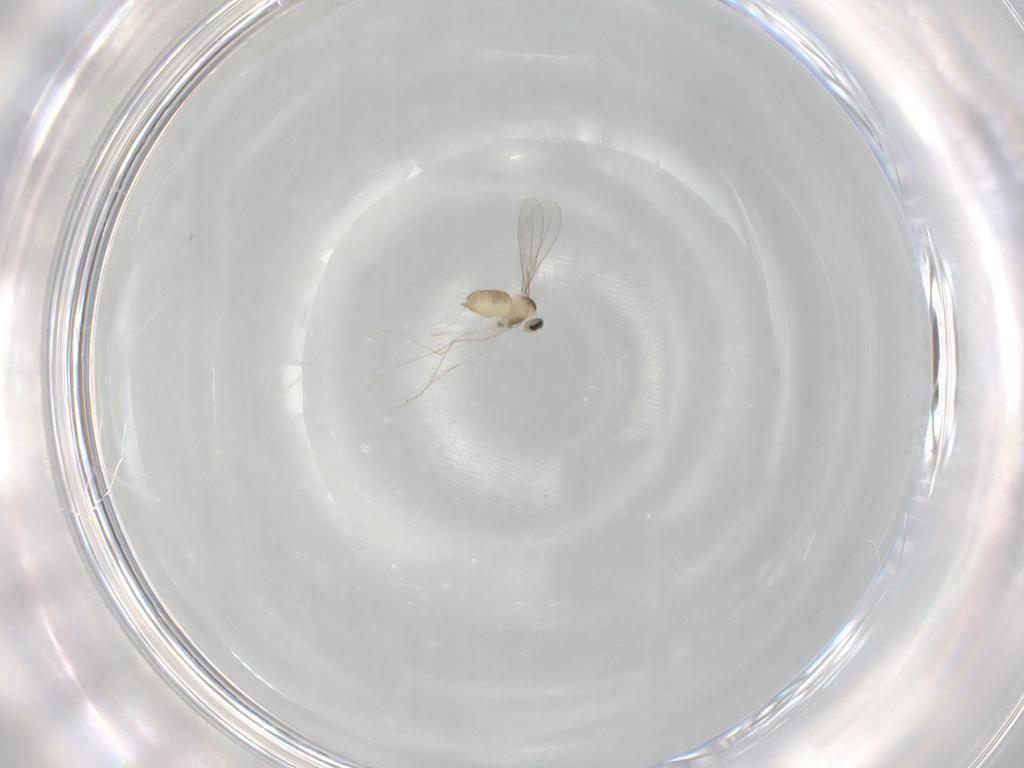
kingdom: Animalia
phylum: Arthropoda
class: Insecta
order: Diptera
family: Cecidomyiidae
